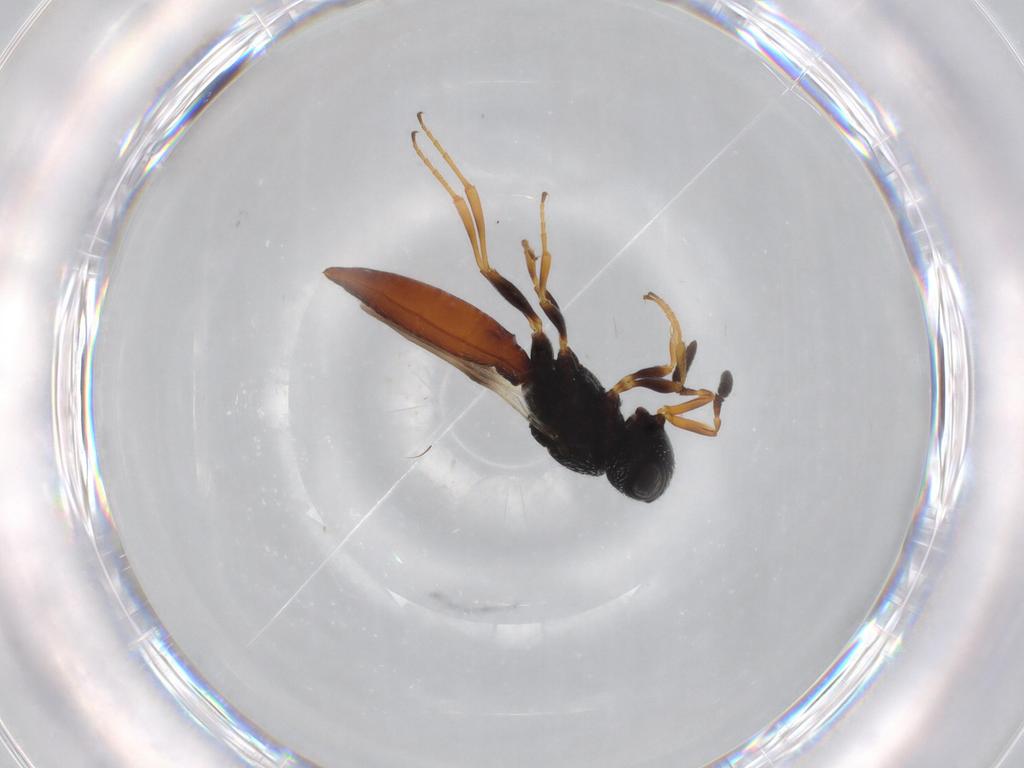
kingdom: Animalia
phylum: Arthropoda
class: Insecta
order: Hymenoptera
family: Scelionidae
